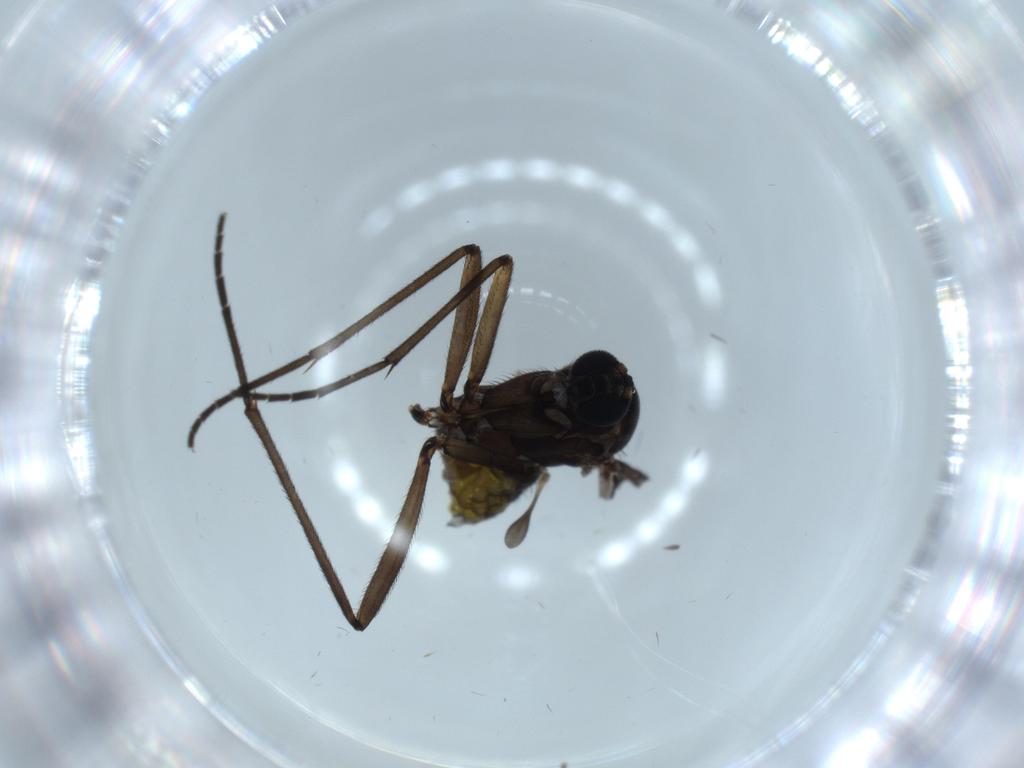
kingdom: Animalia
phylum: Arthropoda
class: Insecta
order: Diptera
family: Sciaridae
